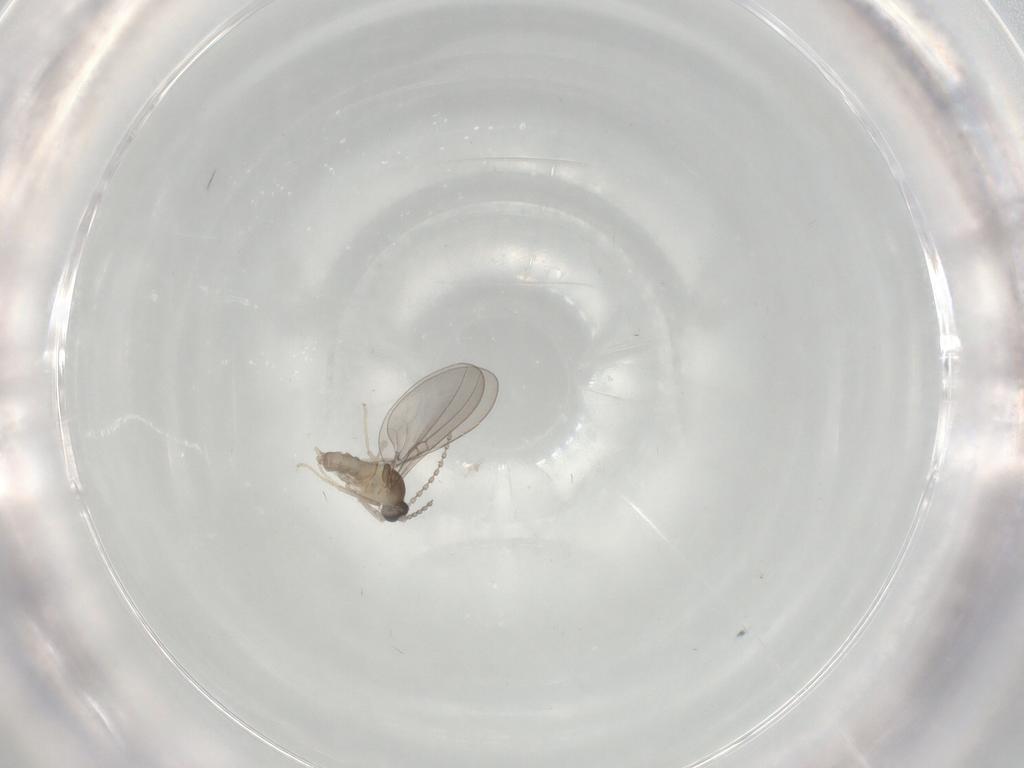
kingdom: Animalia
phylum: Arthropoda
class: Insecta
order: Diptera
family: Cecidomyiidae
